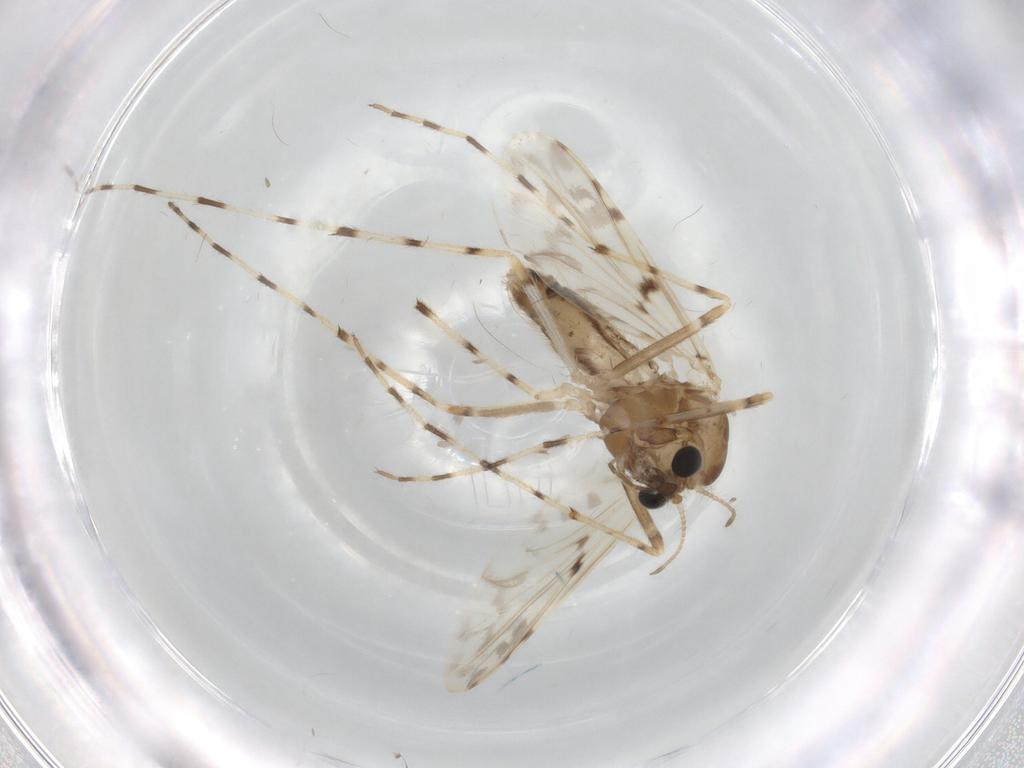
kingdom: Animalia
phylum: Arthropoda
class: Insecta
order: Diptera
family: Chironomidae
